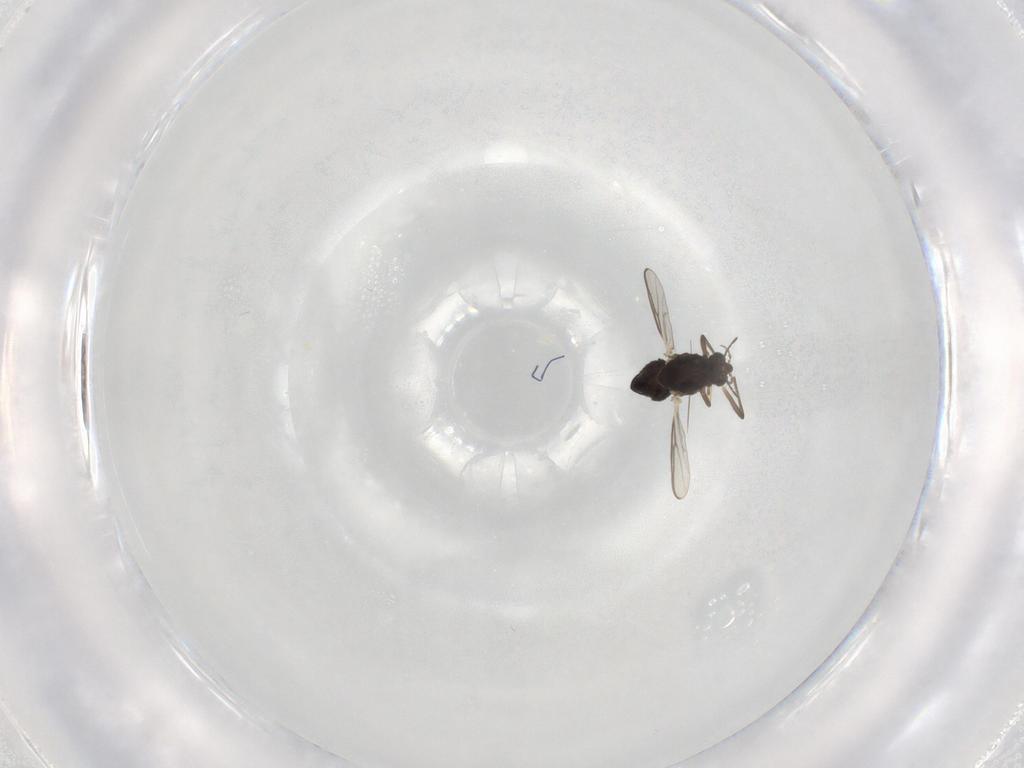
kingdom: Animalia
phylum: Arthropoda
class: Insecta
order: Diptera
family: Chironomidae
